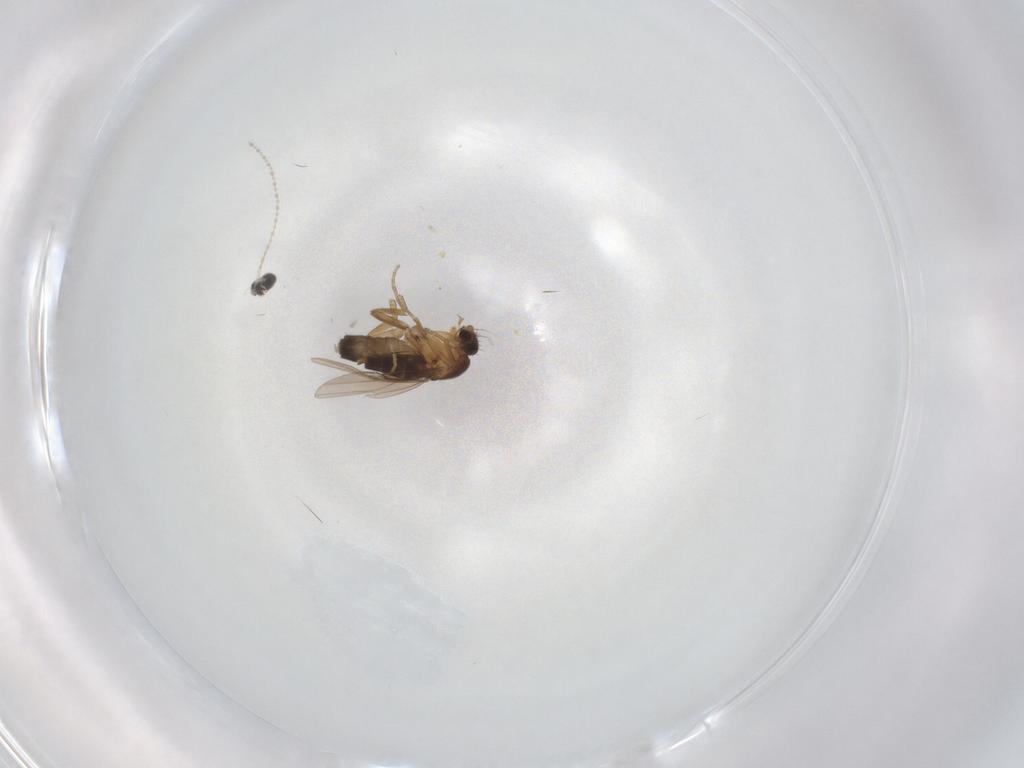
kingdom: Animalia
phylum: Arthropoda
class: Insecta
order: Diptera
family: Phoridae
